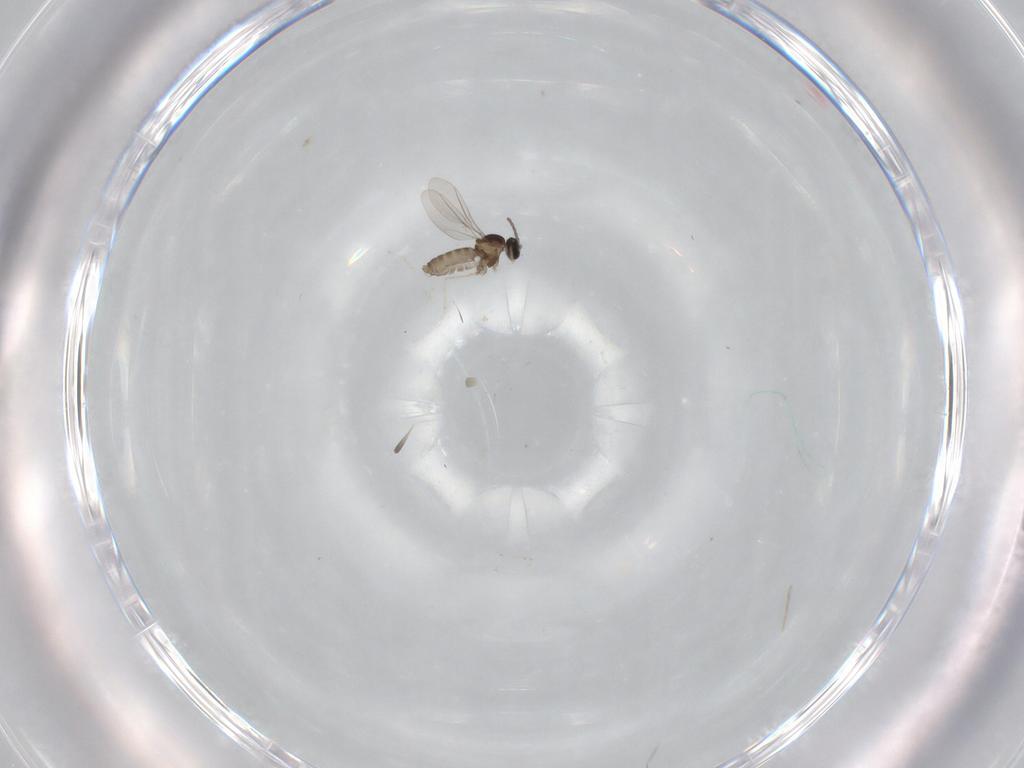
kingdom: Animalia
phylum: Arthropoda
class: Insecta
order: Diptera
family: Cecidomyiidae
